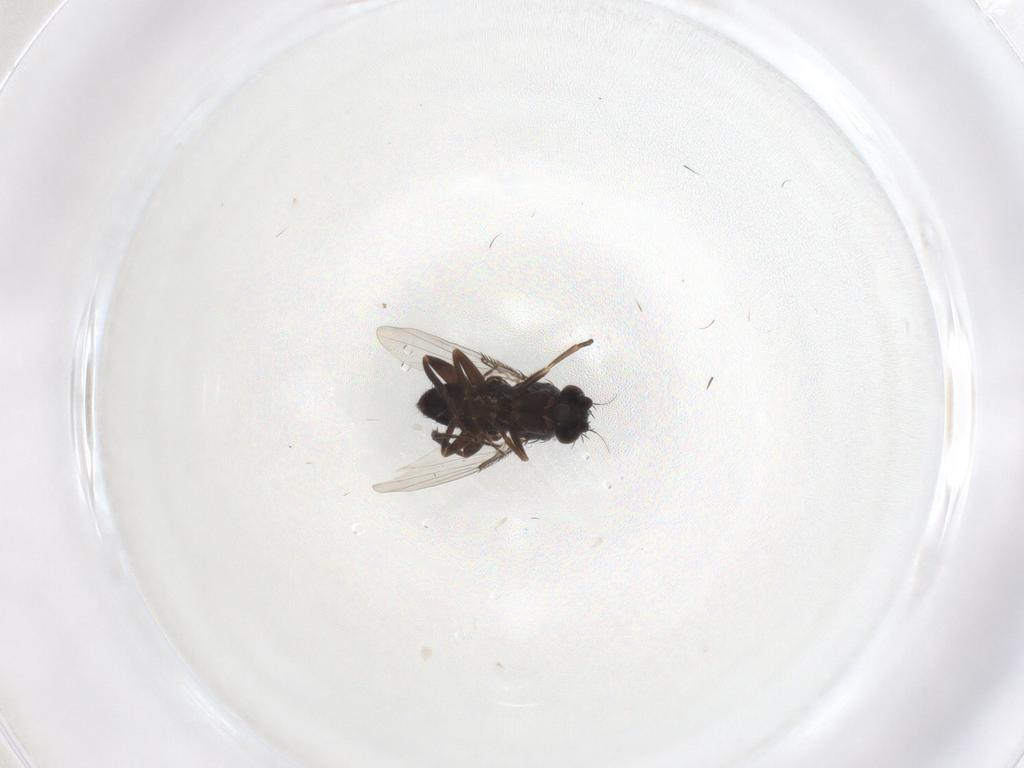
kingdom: Animalia
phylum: Arthropoda
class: Insecta
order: Diptera
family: Phoridae
